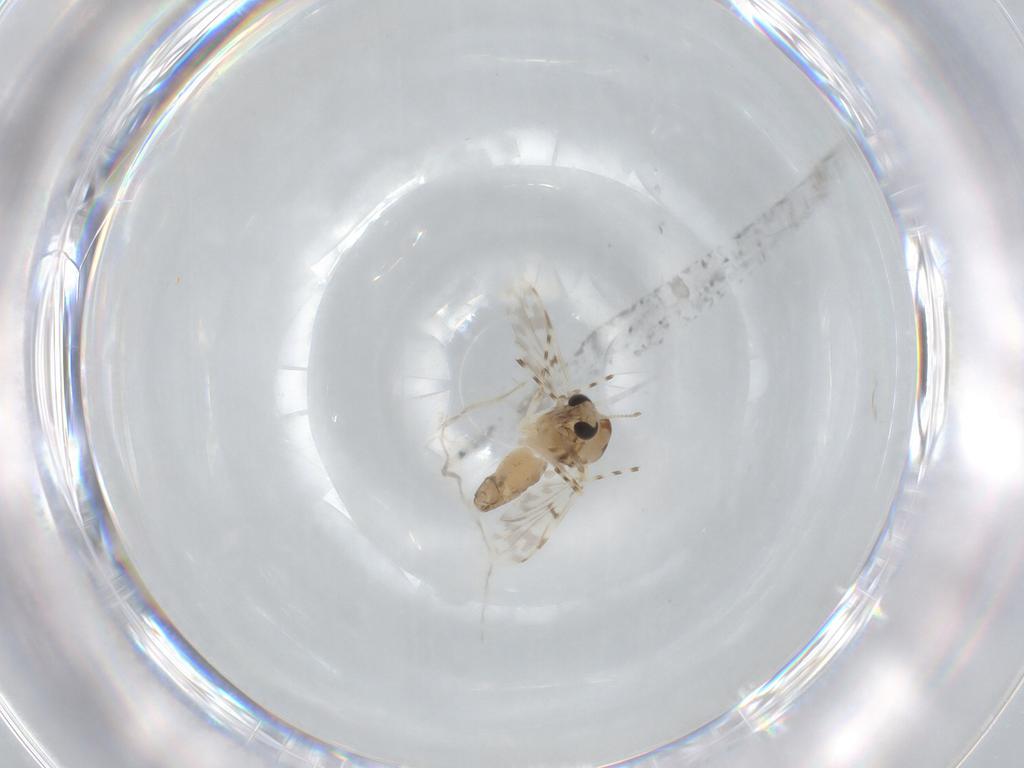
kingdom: Animalia
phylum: Arthropoda
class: Insecta
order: Diptera
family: Chironomidae
